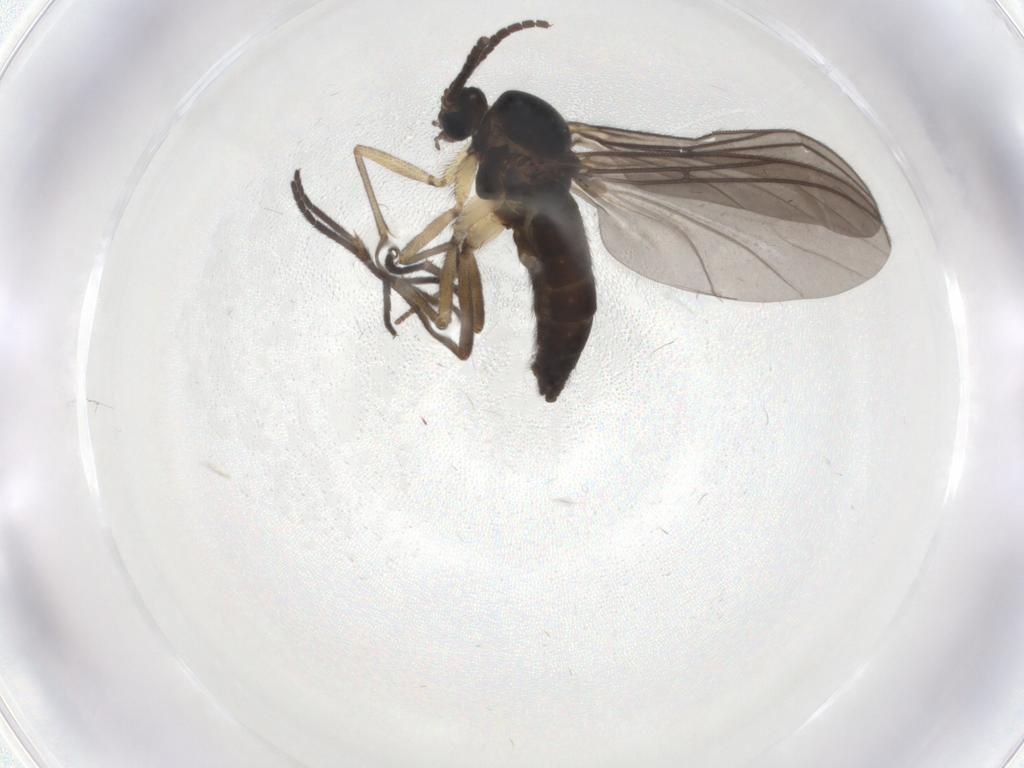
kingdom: Animalia
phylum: Arthropoda
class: Insecta
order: Diptera
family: Sciaridae
